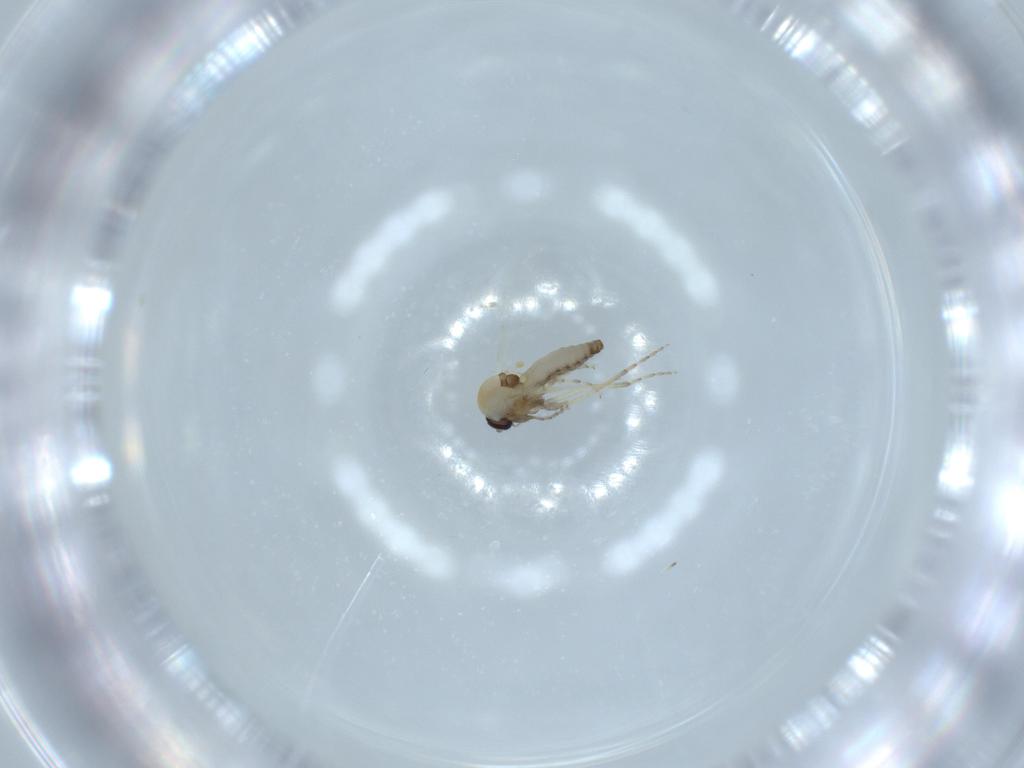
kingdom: Animalia
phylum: Arthropoda
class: Insecta
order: Diptera
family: Ceratopogonidae
